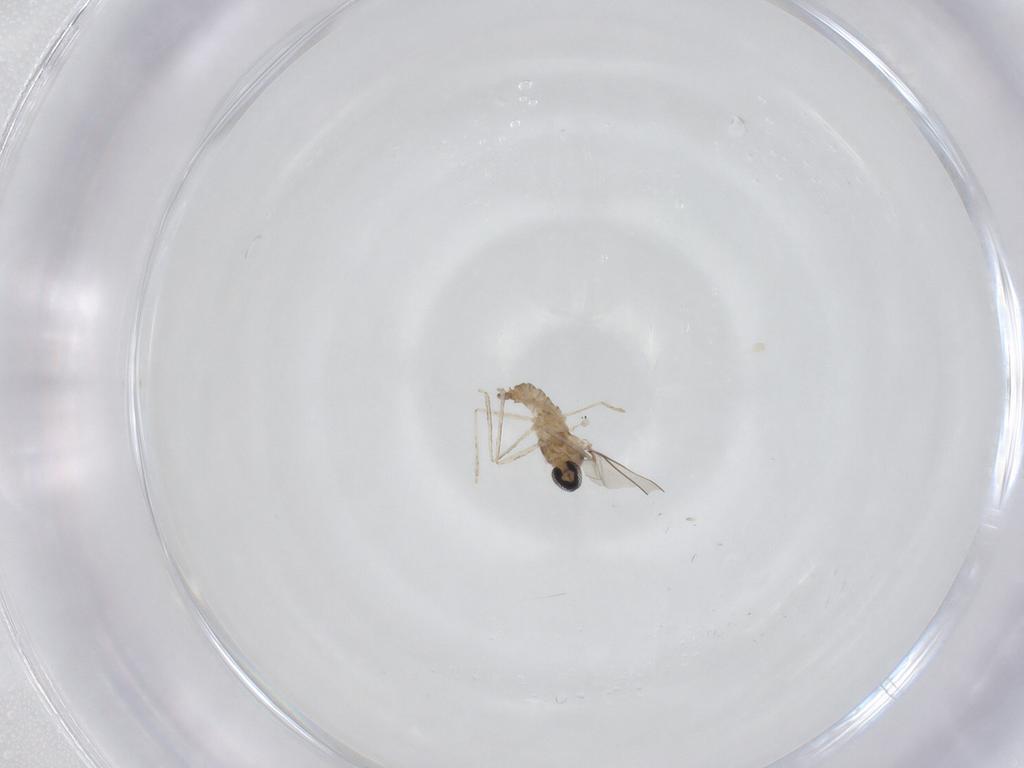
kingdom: Animalia
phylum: Arthropoda
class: Insecta
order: Diptera
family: Cecidomyiidae
